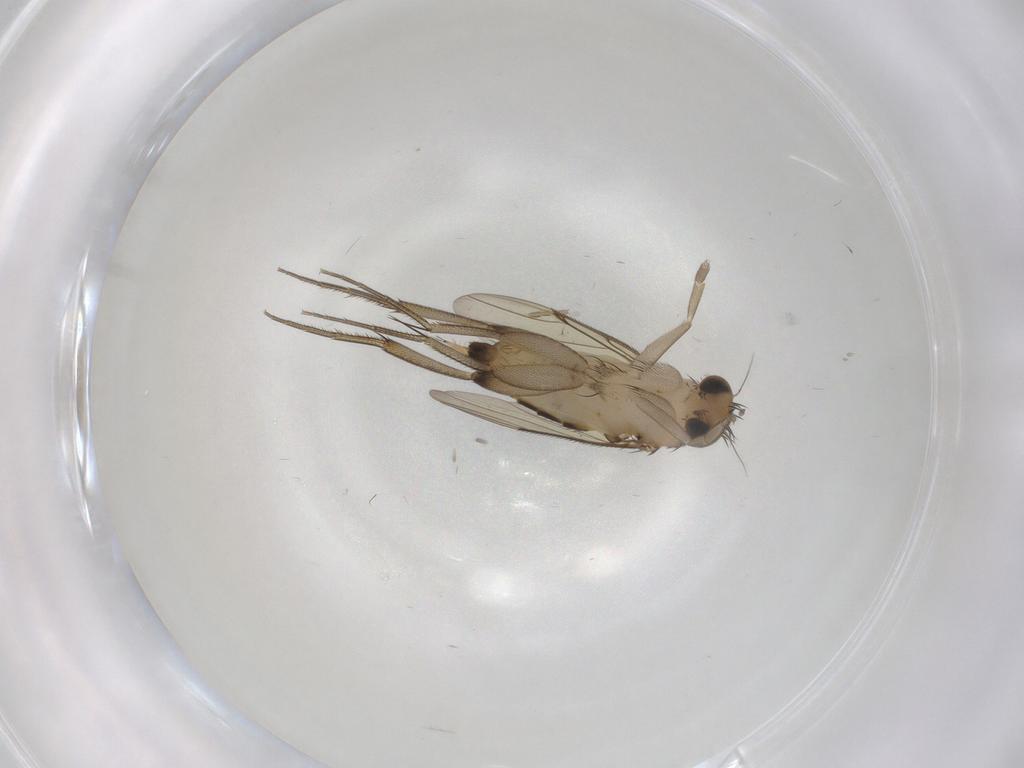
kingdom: Animalia
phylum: Arthropoda
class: Insecta
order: Diptera
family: Phoridae
